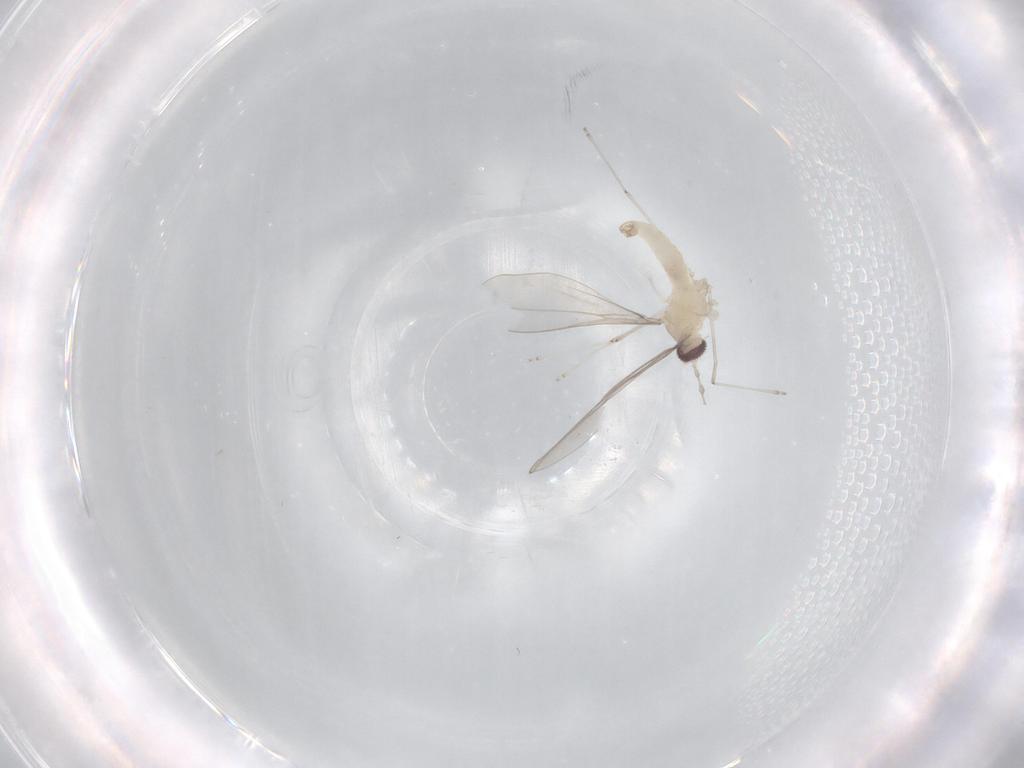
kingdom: Animalia
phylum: Arthropoda
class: Insecta
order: Diptera
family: Cecidomyiidae
